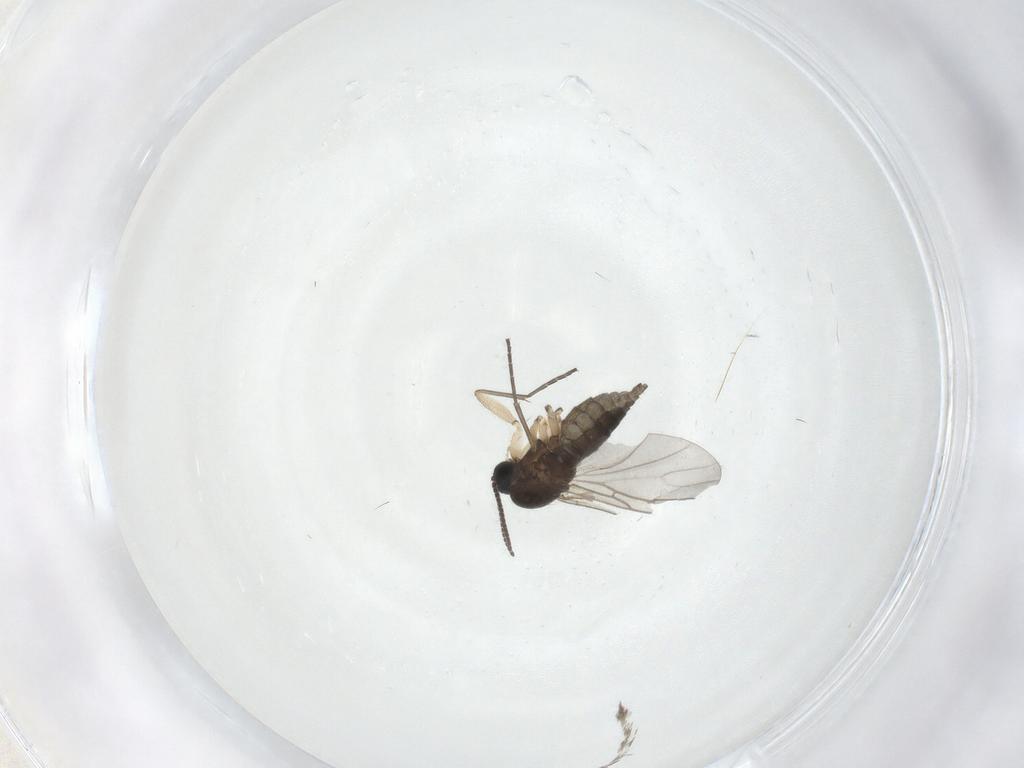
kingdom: Animalia
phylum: Arthropoda
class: Insecta
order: Diptera
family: Sciaridae
